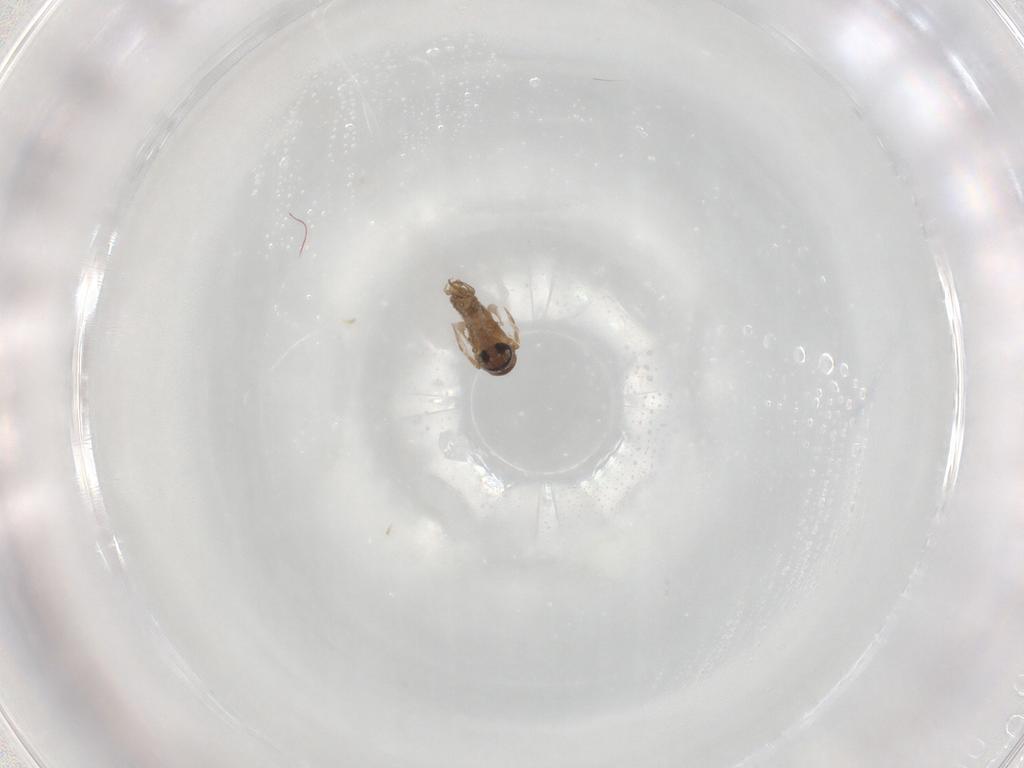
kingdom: Animalia
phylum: Arthropoda
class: Insecta
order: Diptera
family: Psychodidae
